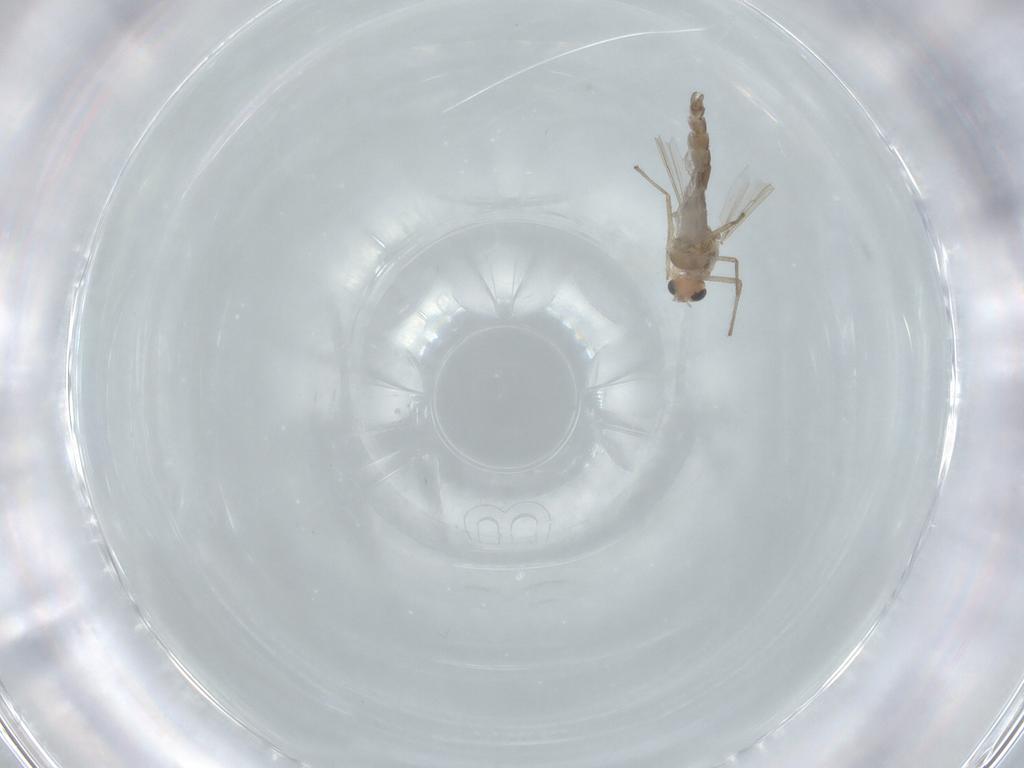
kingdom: Animalia
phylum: Arthropoda
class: Insecta
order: Diptera
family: Chironomidae
